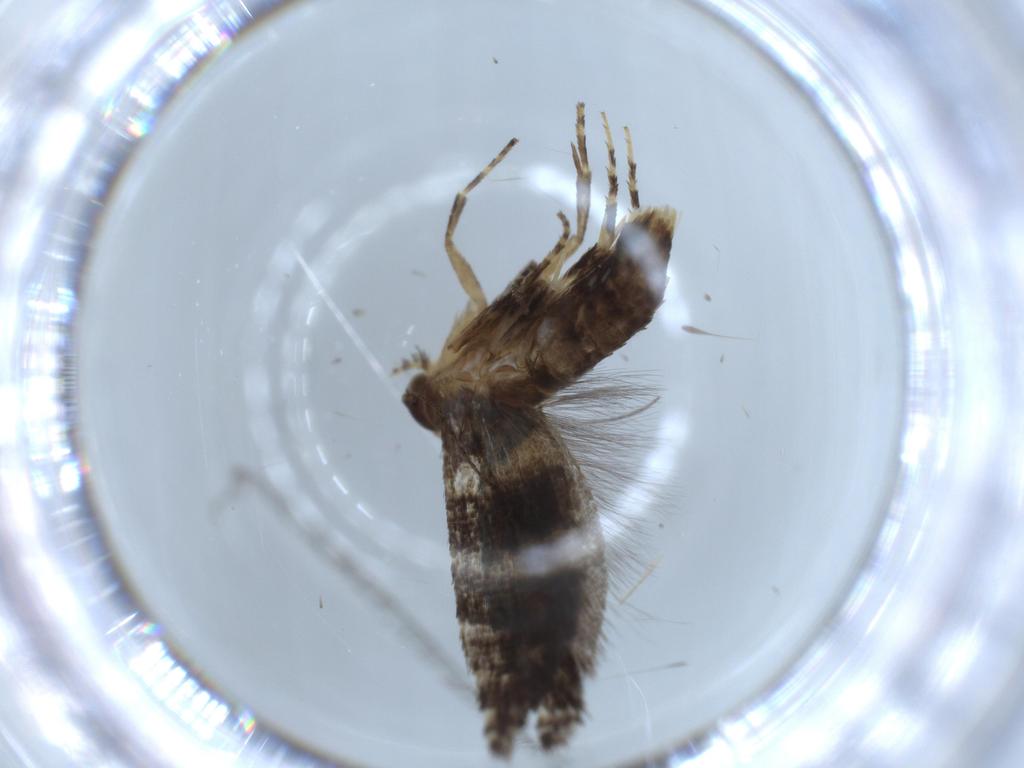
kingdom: Animalia
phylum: Arthropoda
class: Insecta
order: Lepidoptera
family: Glyphipterigidae
